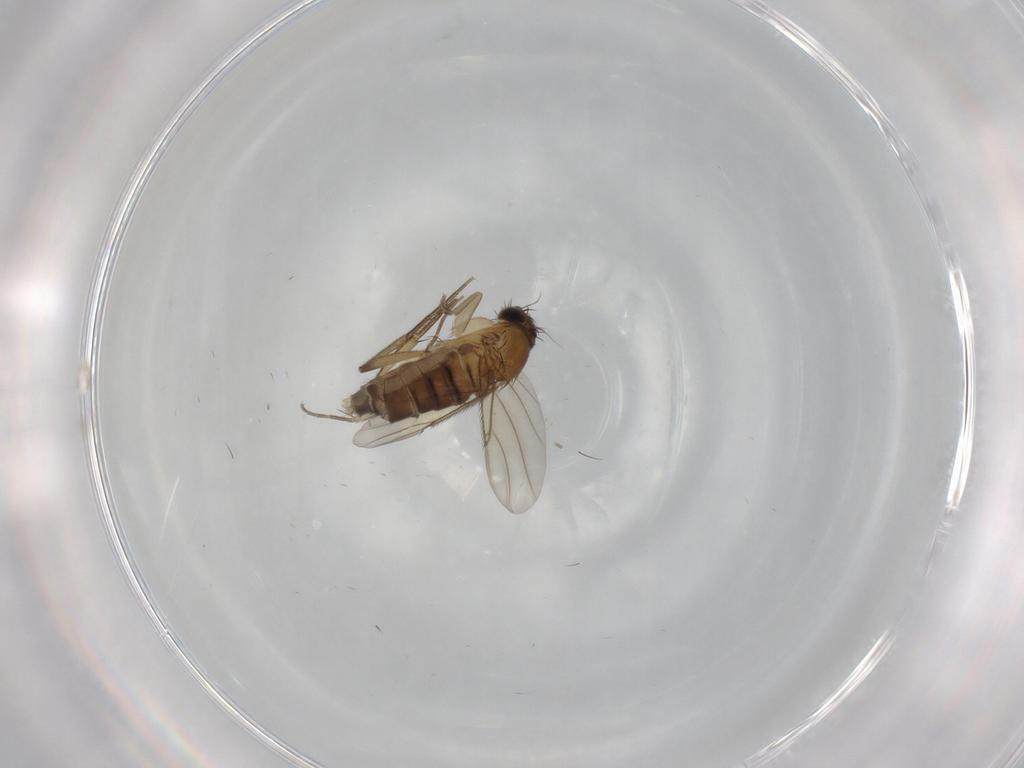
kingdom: Animalia
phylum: Arthropoda
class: Insecta
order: Diptera
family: Phoridae
